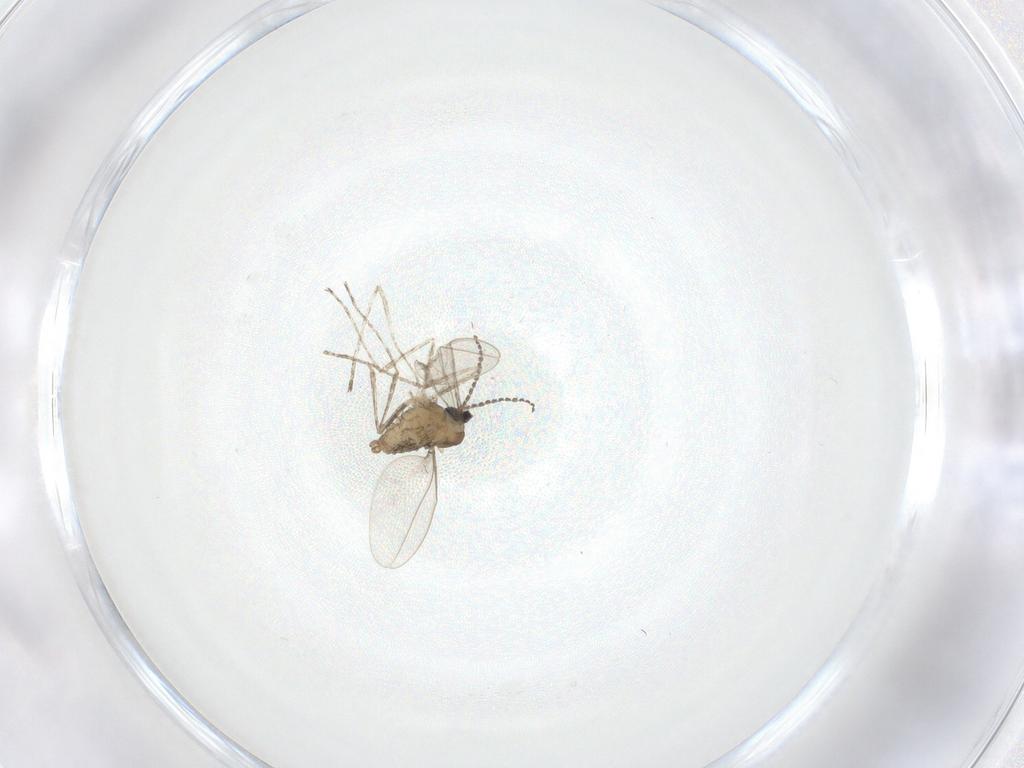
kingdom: Animalia
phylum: Arthropoda
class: Insecta
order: Diptera
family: Cecidomyiidae
